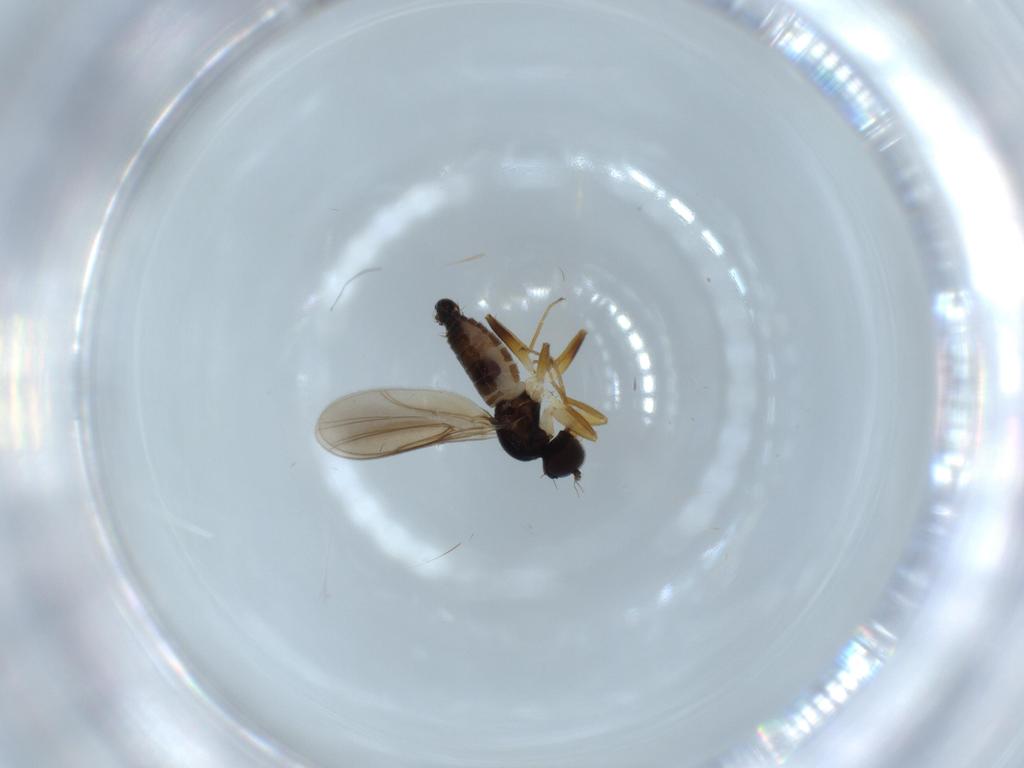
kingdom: Animalia
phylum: Arthropoda
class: Insecta
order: Diptera
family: Hybotidae
